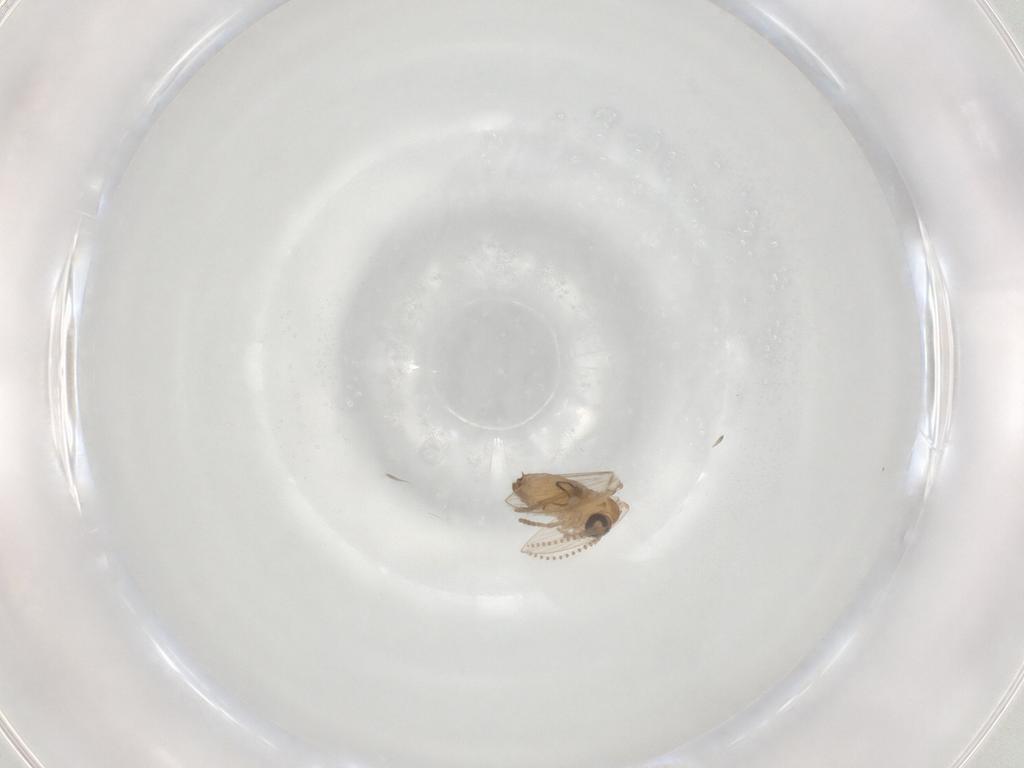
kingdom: Animalia
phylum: Arthropoda
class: Insecta
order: Diptera
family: Psychodidae
